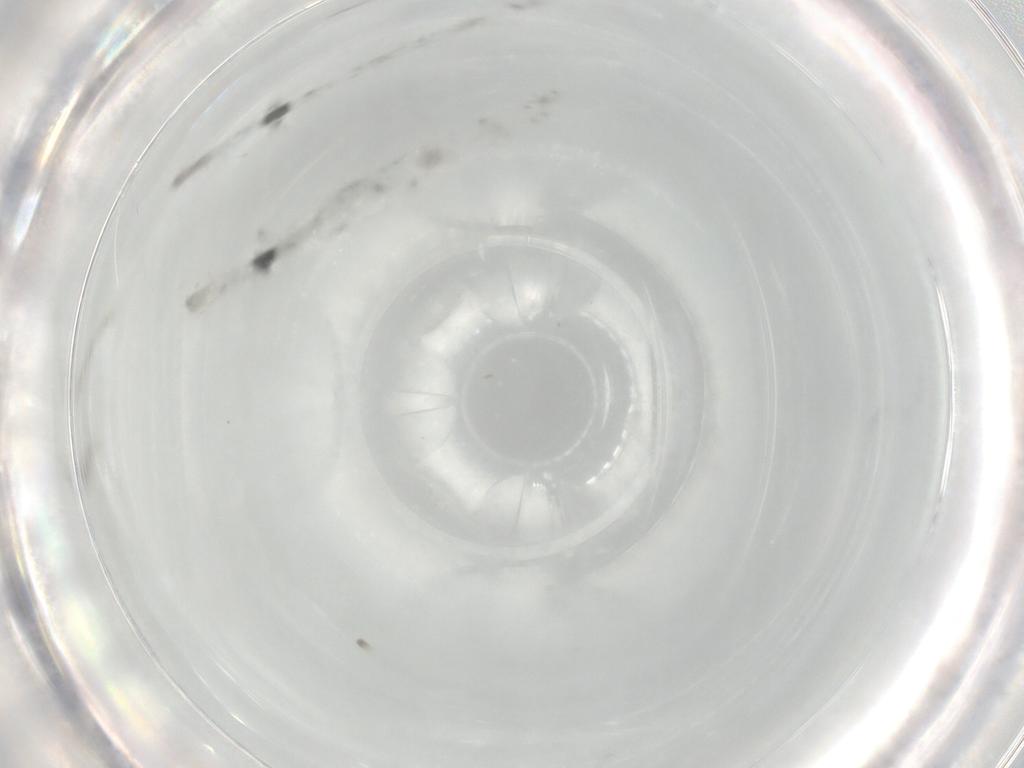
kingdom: Animalia
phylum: Arthropoda
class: Collembola
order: Entomobryomorpha
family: Entomobryidae
